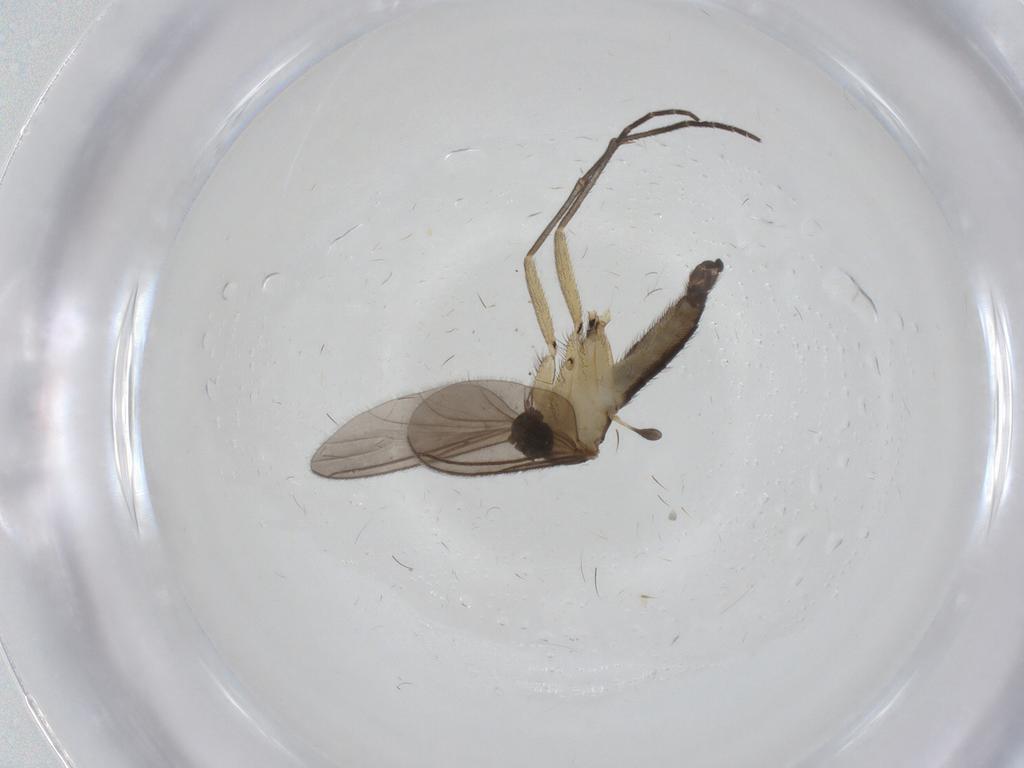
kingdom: Animalia
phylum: Arthropoda
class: Insecta
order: Diptera
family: Sciaridae
